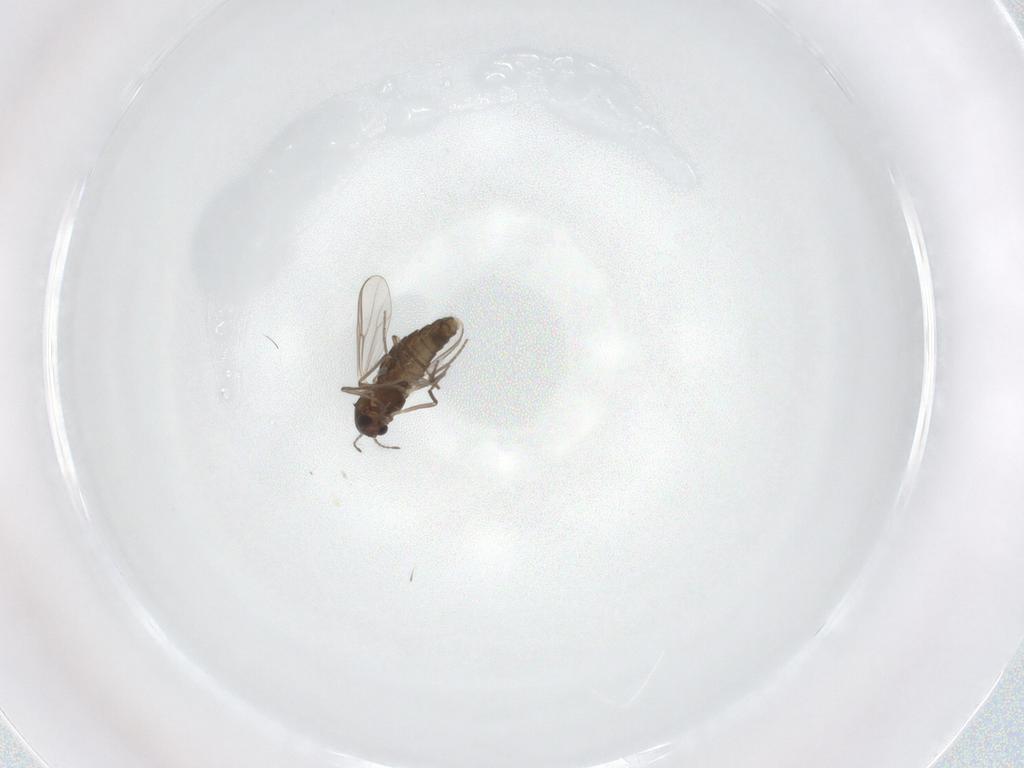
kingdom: Animalia
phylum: Arthropoda
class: Insecta
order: Diptera
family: Chironomidae
